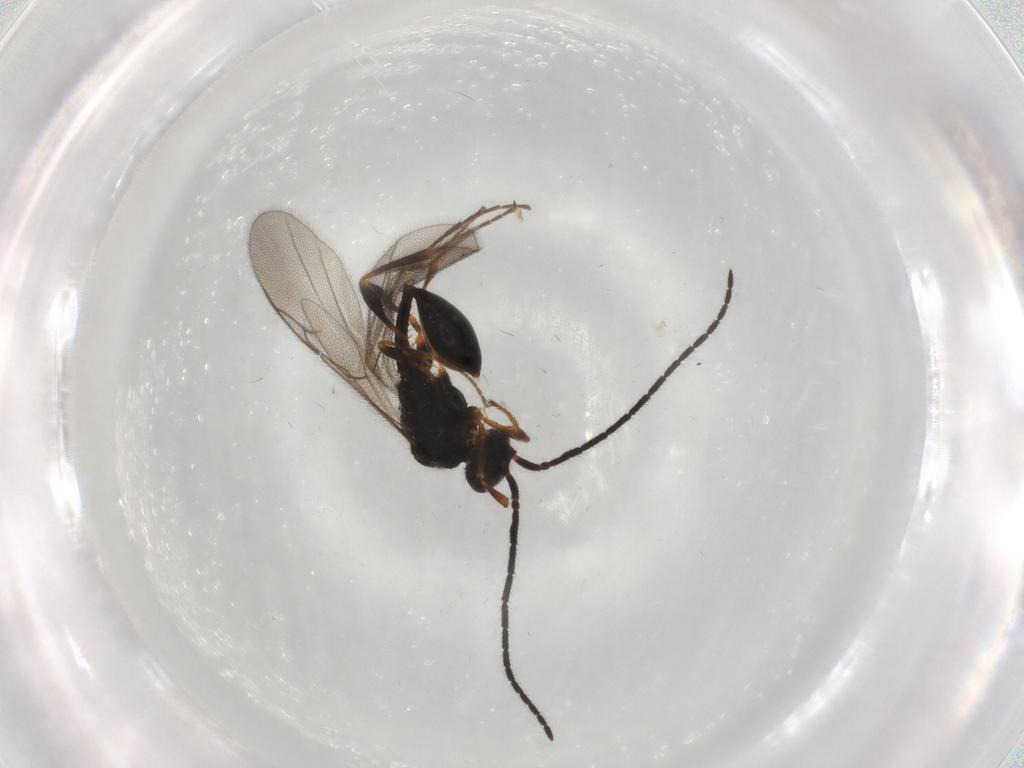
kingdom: Animalia
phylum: Arthropoda
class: Insecta
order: Hymenoptera
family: Diapriidae
